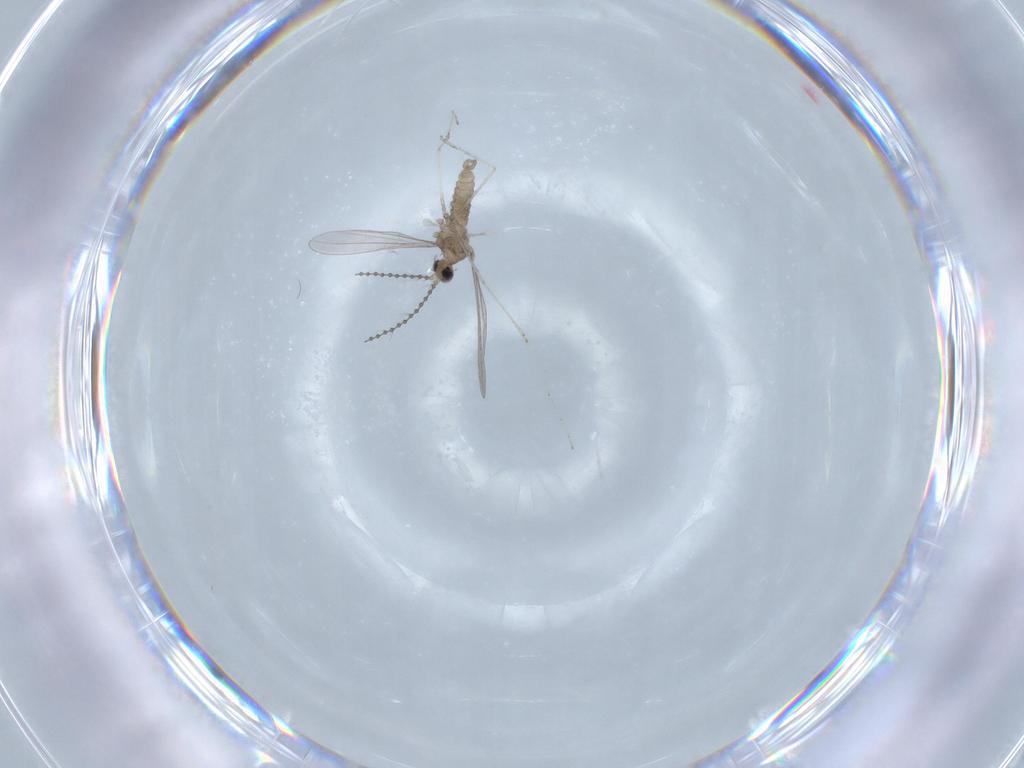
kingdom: Animalia
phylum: Arthropoda
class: Insecta
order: Diptera
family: Cecidomyiidae
